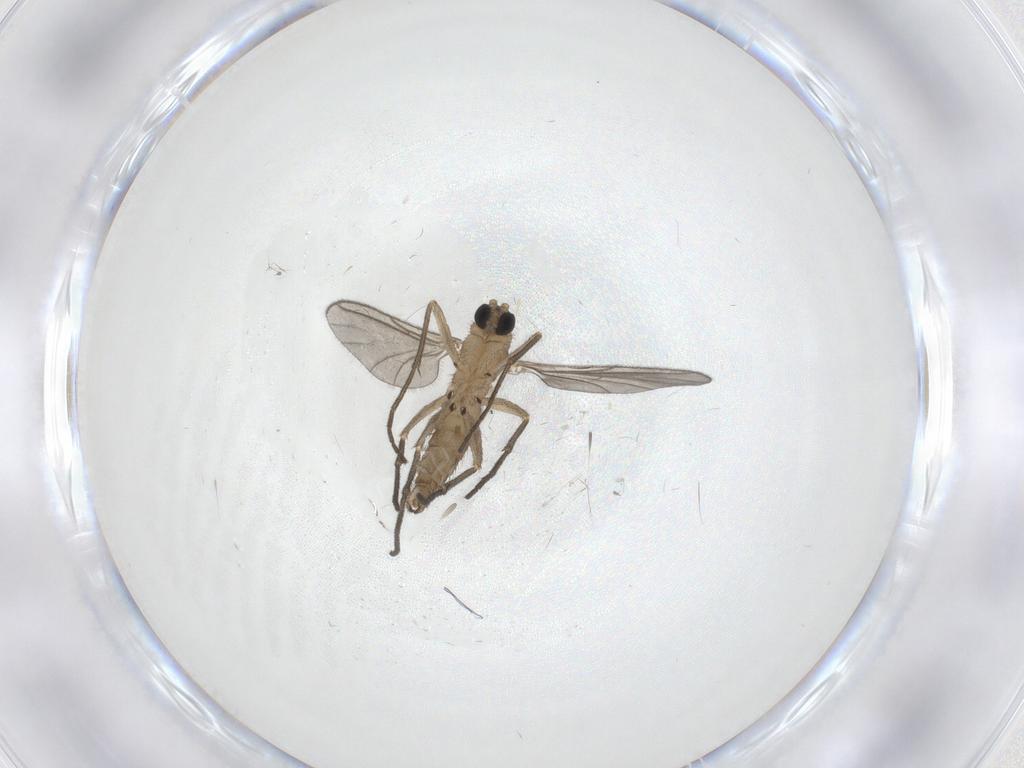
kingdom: Animalia
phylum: Arthropoda
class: Insecta
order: Diptera
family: Sciaridae
